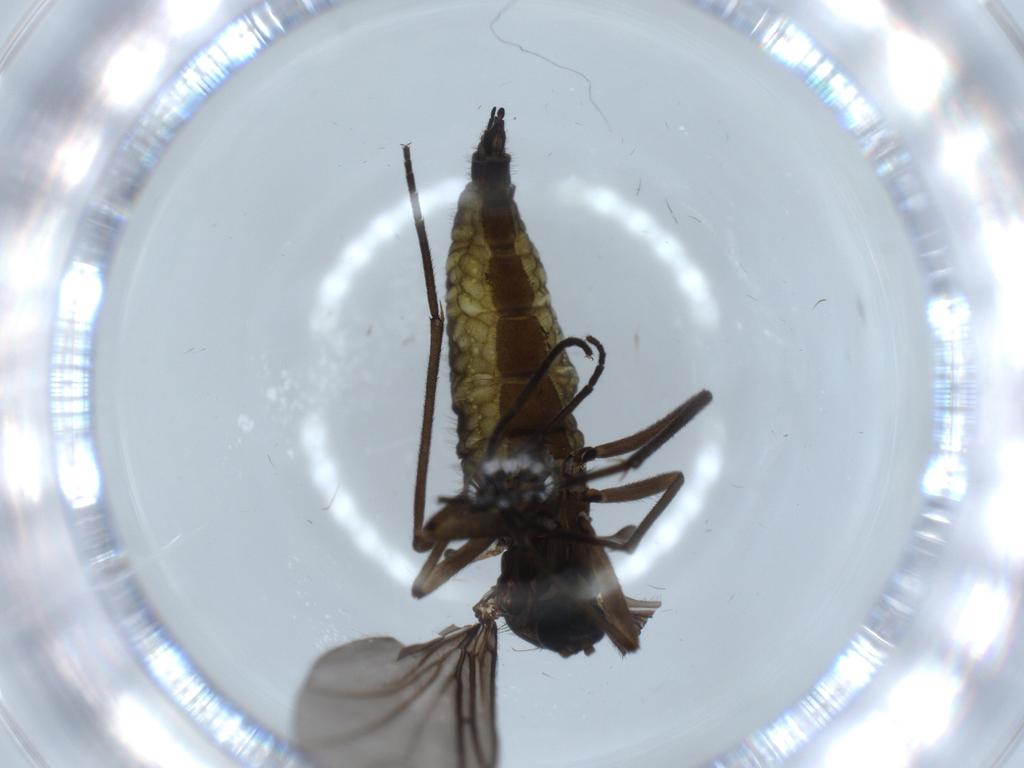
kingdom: Animalia
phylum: Arthropoda
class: Insecta
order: Diptera
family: Sciaridae
